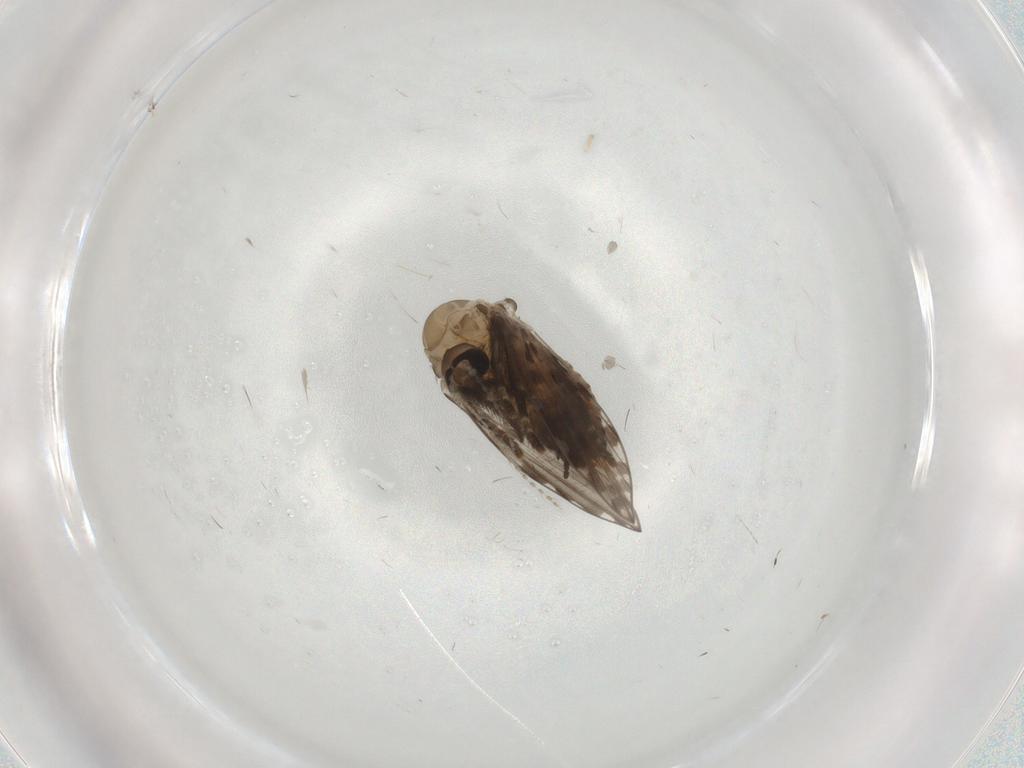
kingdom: Animalia
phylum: Arthropoda
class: Insecta
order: Diptera
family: Psychodidae
